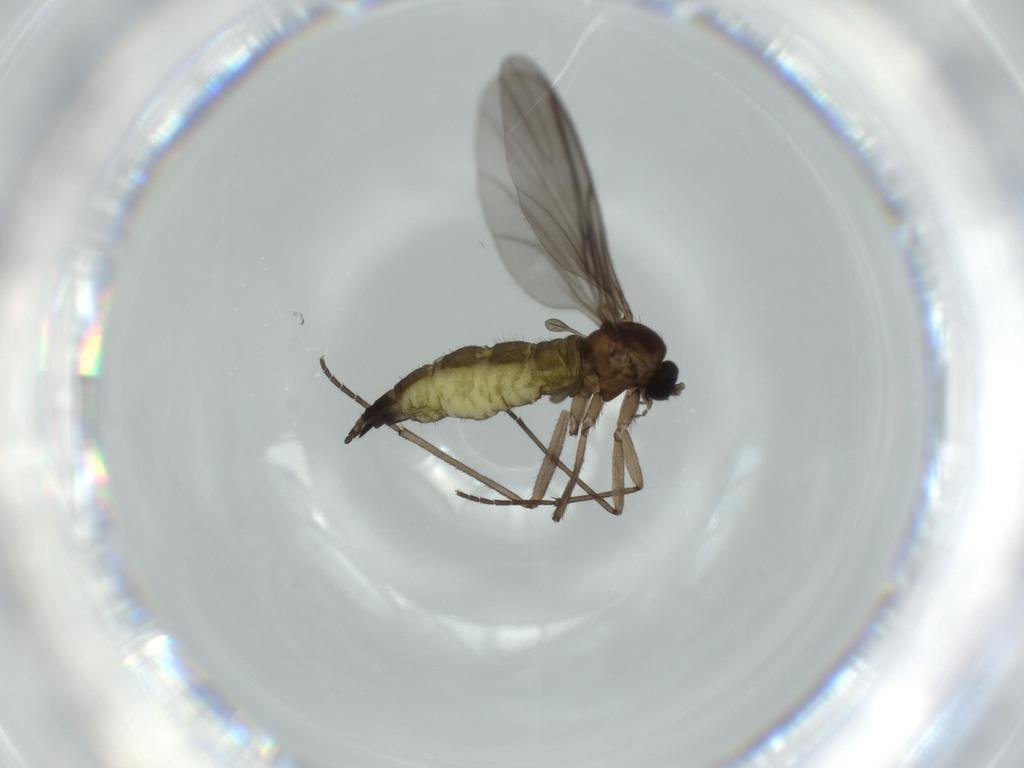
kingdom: Animalia
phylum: Arthropoda
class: Insecta
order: Diptera
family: Sciaridae
